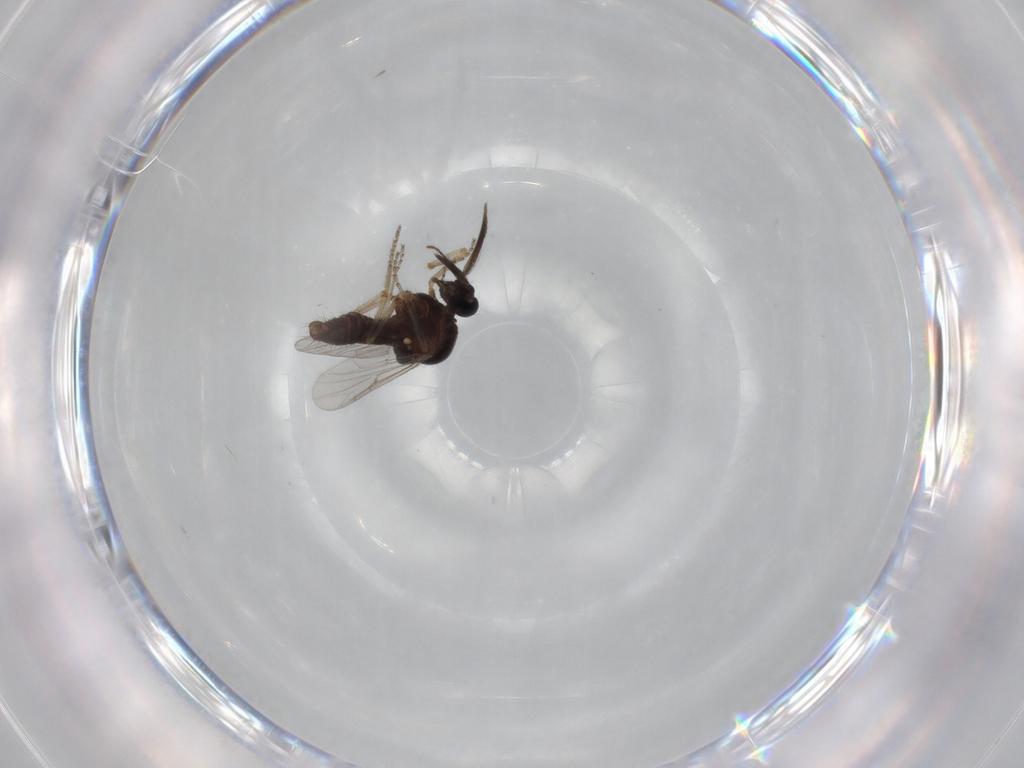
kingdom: Animalia
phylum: Arthropoda
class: Insecta
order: Diptera
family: Ceratopogonidae
